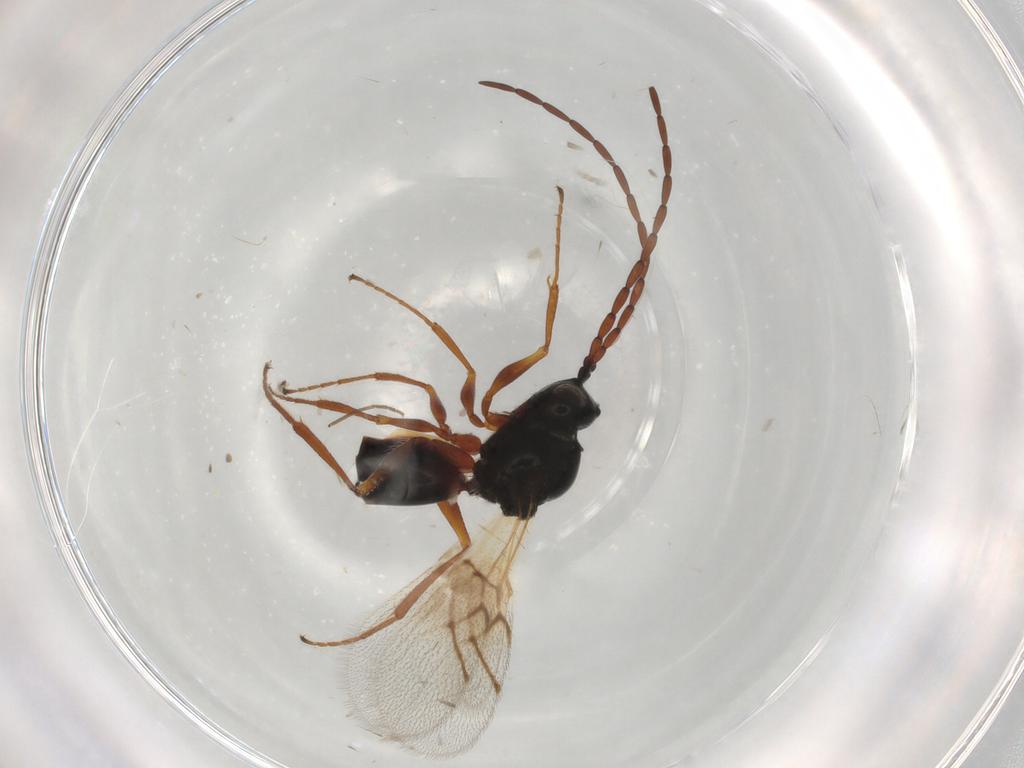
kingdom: Animalia
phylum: Arthropoda
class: Insecta
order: Hymenoptera
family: Figitidae
